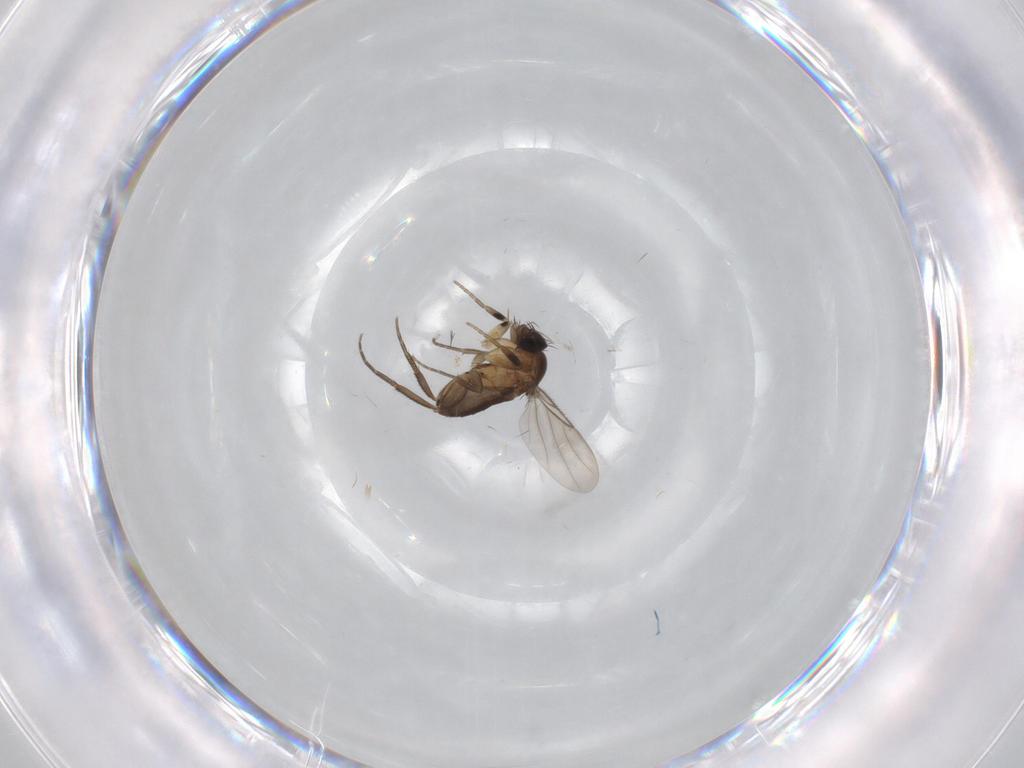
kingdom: Animalia
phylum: Arthropoda
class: Insecta
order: Diptera
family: Phoridae
